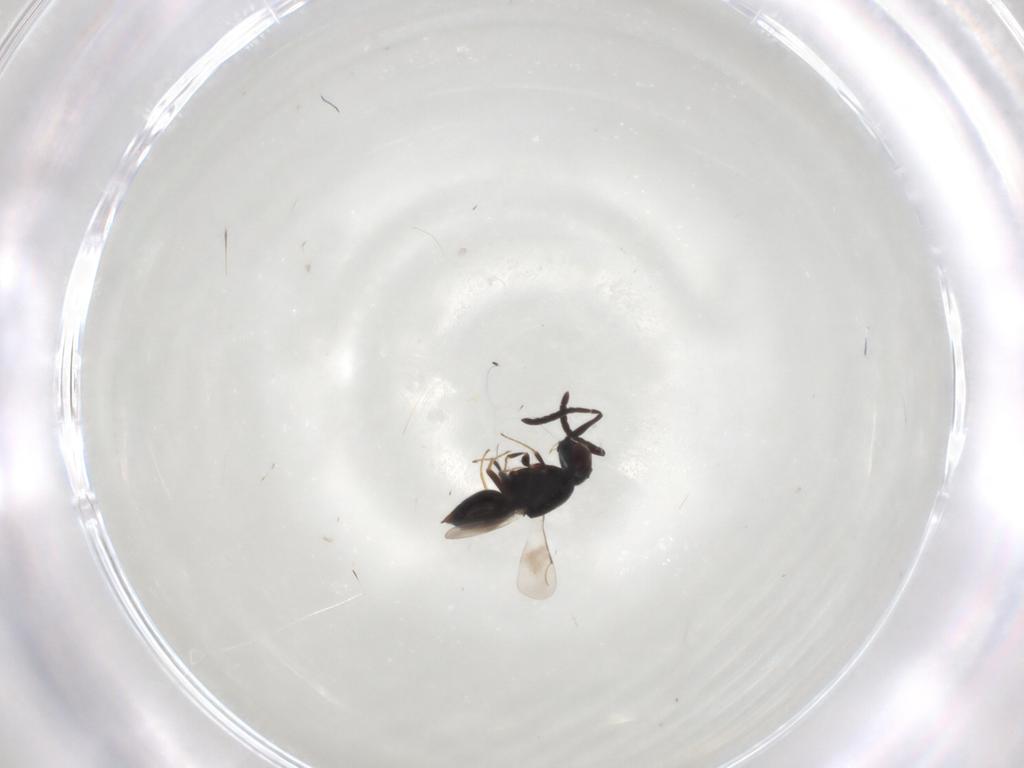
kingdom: Animalia
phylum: Arthropoda
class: Insecta
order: Hymenoptera
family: Ceraphronidae
